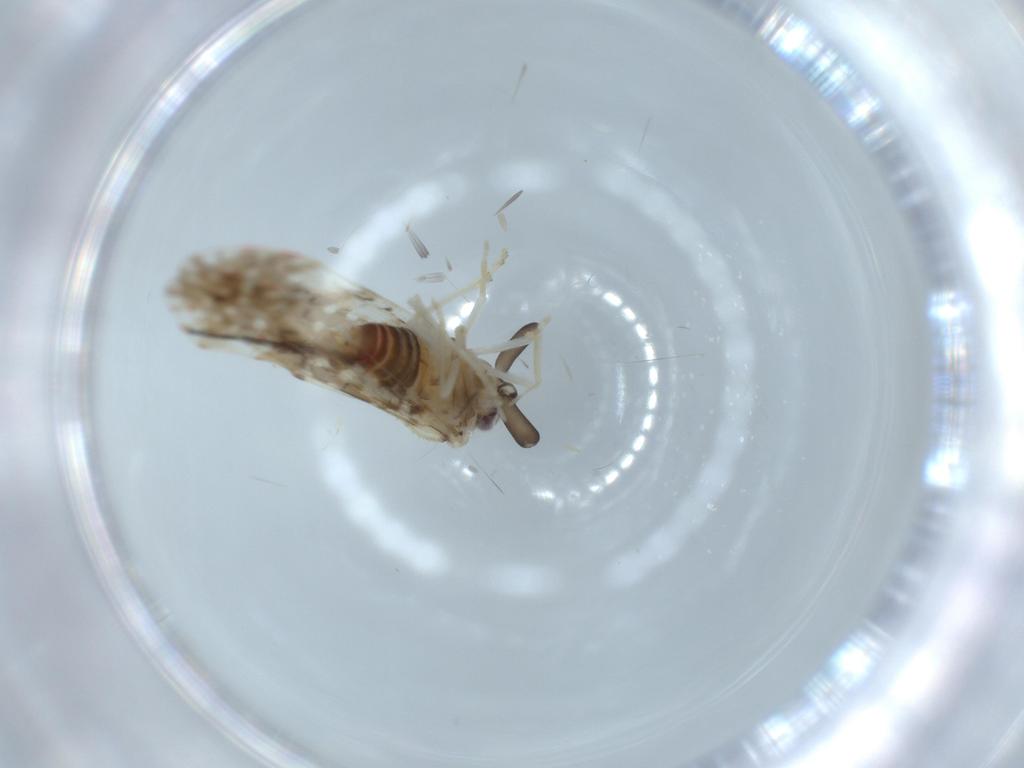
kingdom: Animalia
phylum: Arthropoda
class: Insecta
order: Hemiptera
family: Derbidae
